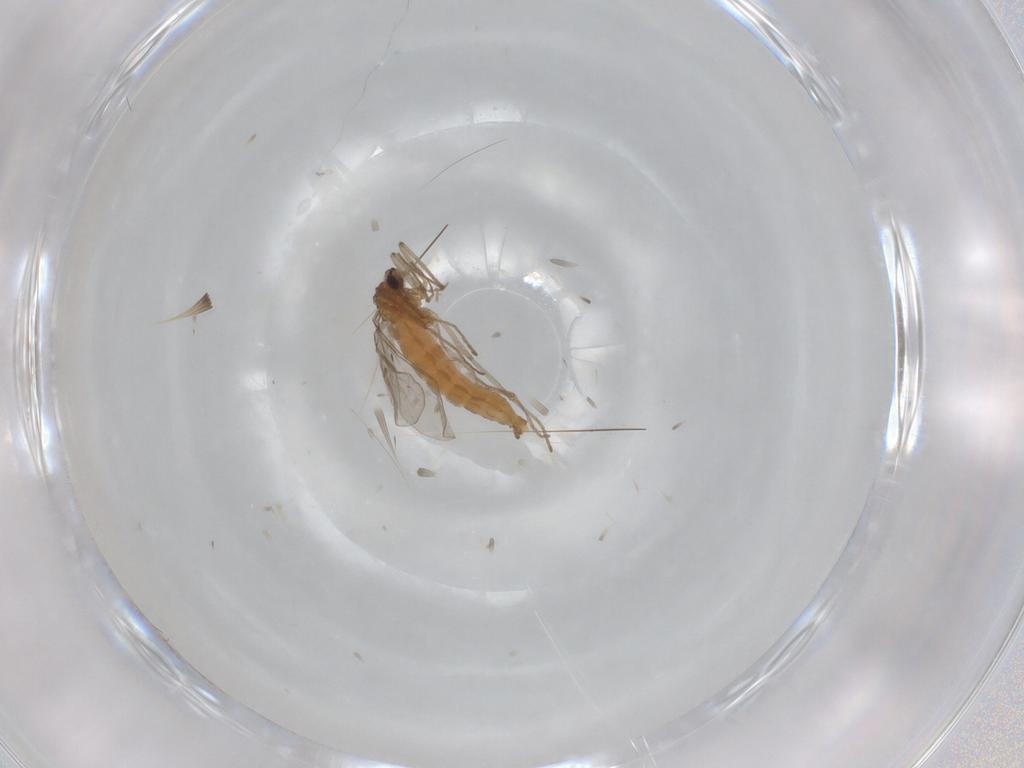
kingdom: Animalia
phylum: Arthropoda
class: Insecta
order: Diptera
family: Cecidomyiidae
